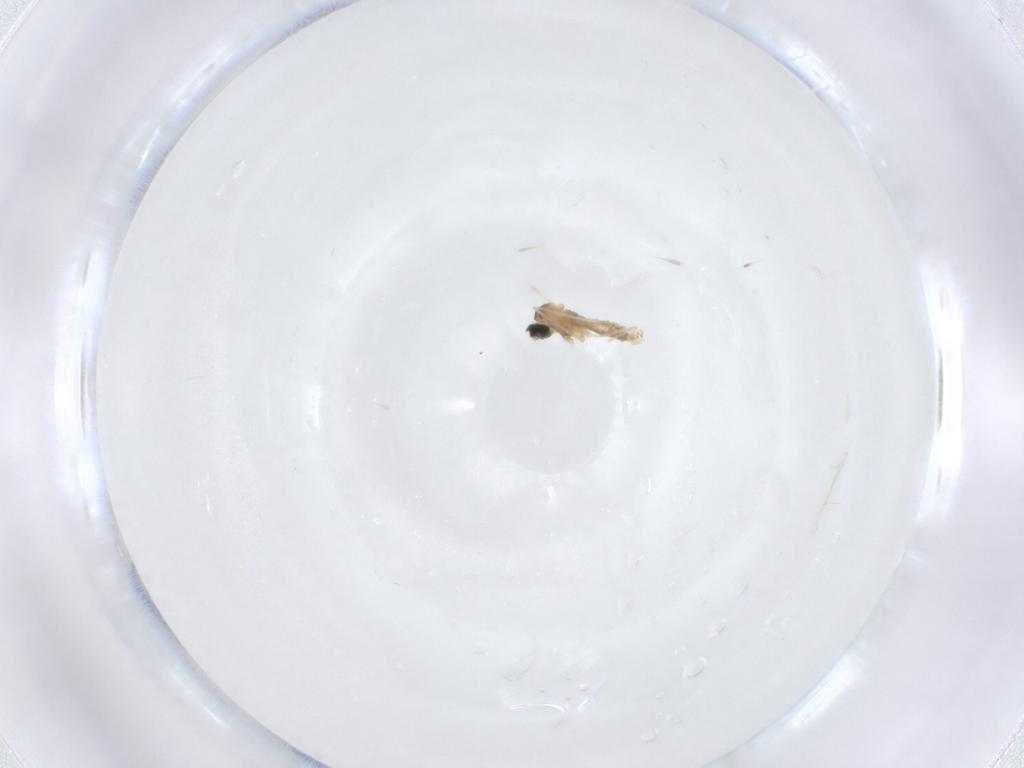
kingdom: Animalia
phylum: Arthropoda
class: Insecta
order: Diptera
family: Cecidomyiidae
